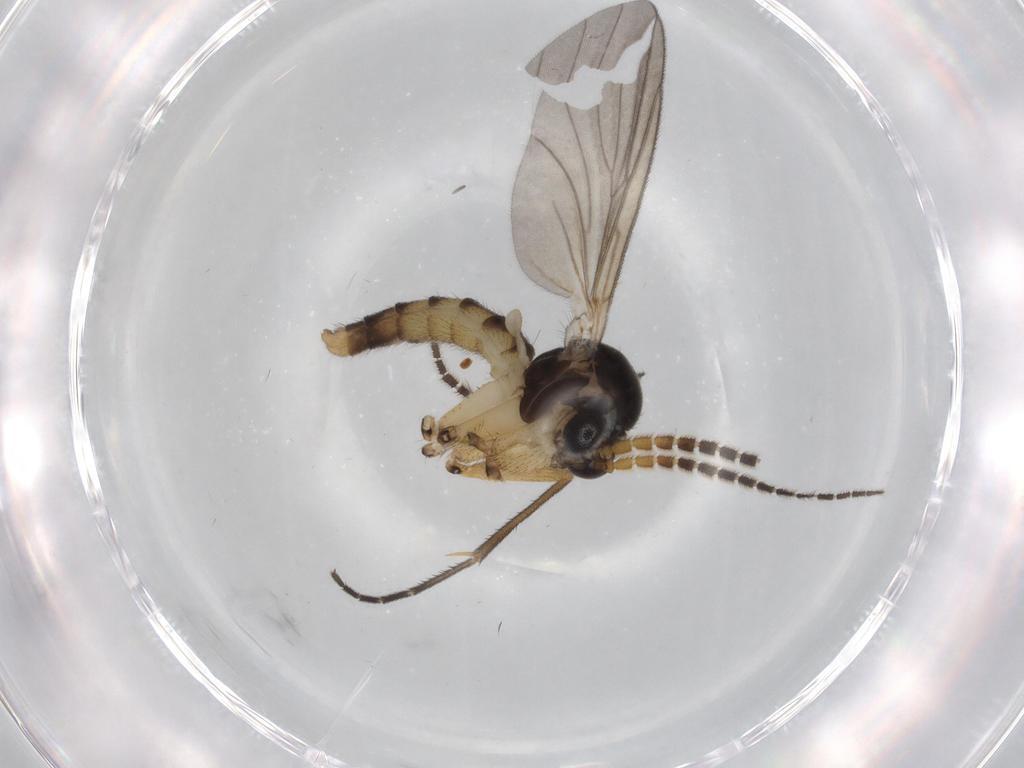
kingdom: Animalia
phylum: Arthropoda
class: Insecta
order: Diptera
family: Mycetophilidae
